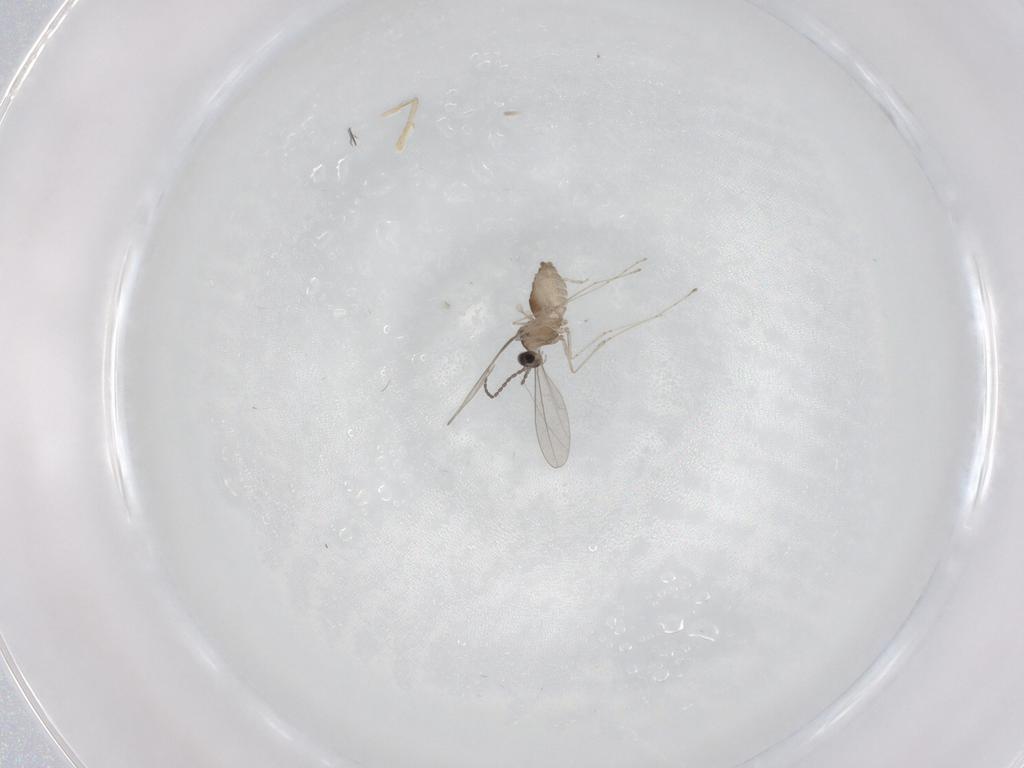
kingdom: Animalia
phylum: Arthropoda
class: Insecta
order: Diptera
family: Cecidomyiidae
